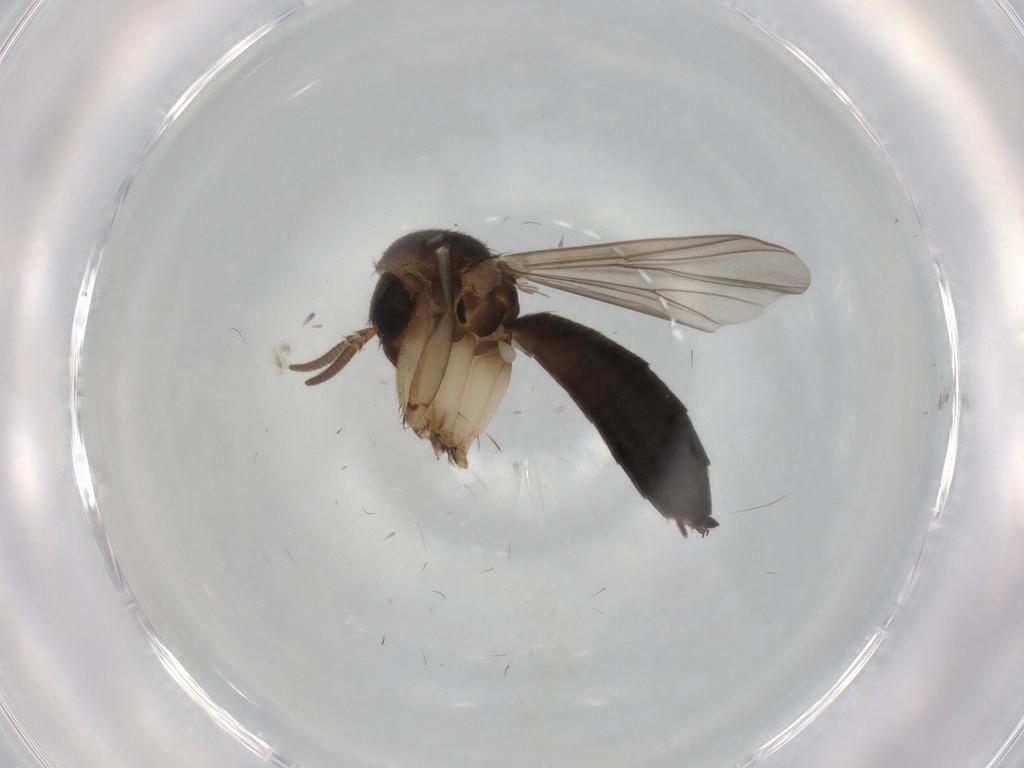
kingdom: Animalia
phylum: Arthropoda
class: Insecta
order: Diptera
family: Mycetophilidae
